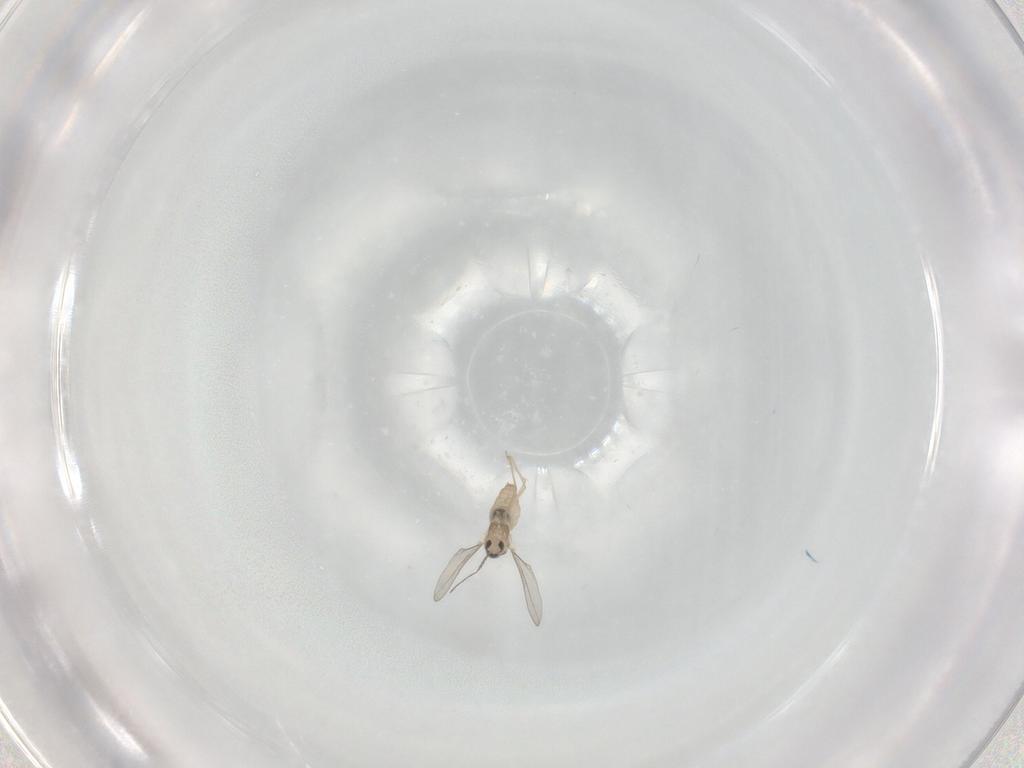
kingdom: Animalia
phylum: Arthropoda
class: Insecta
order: Diptera
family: Cecidomyiidae
